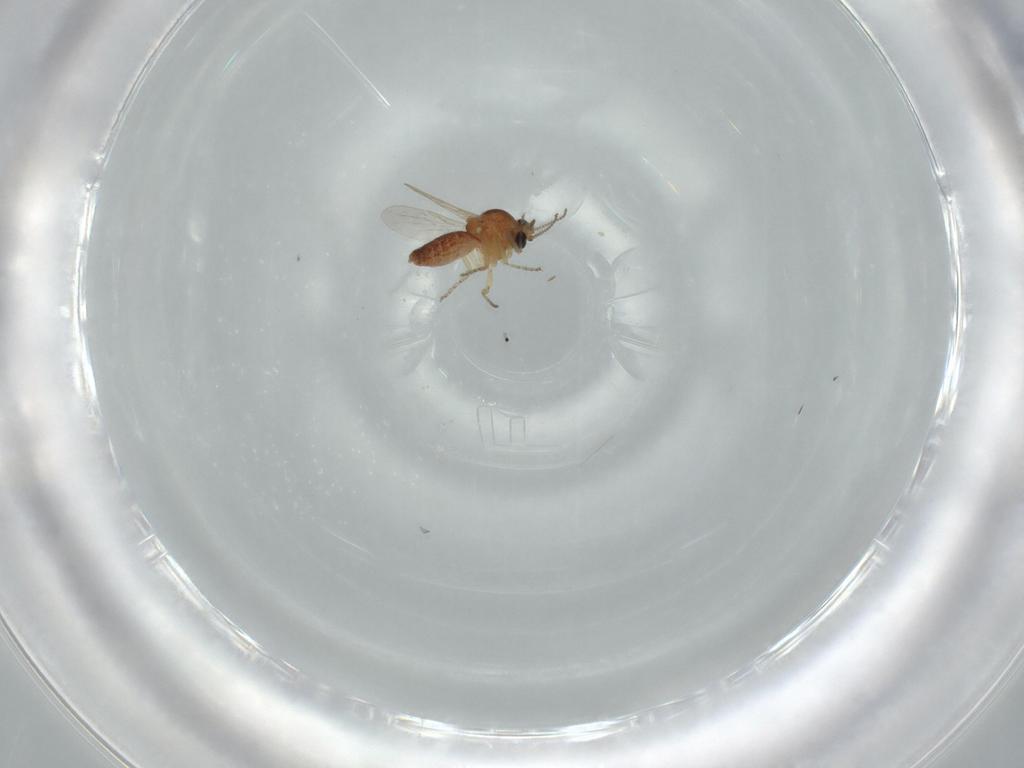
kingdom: Animalia
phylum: Arthropoda
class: Insecta
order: Diptera
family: Ceratopogonidae
